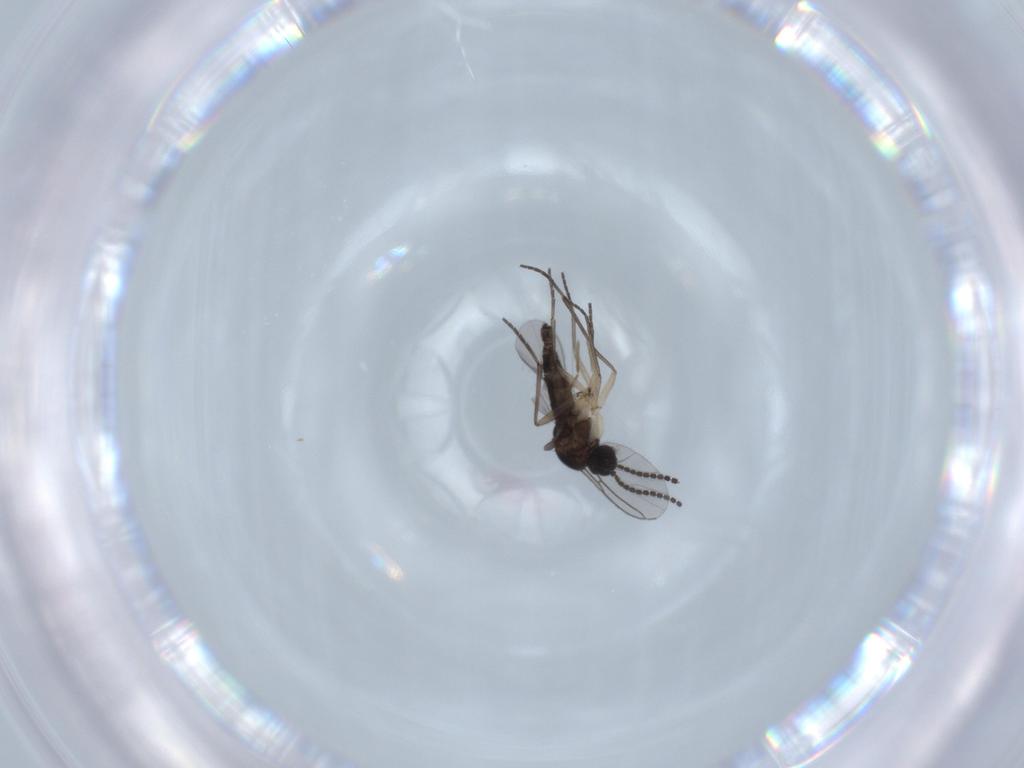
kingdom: Animalia
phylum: Arthropoda
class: Insecta
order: Diptera
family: Sciaridae
